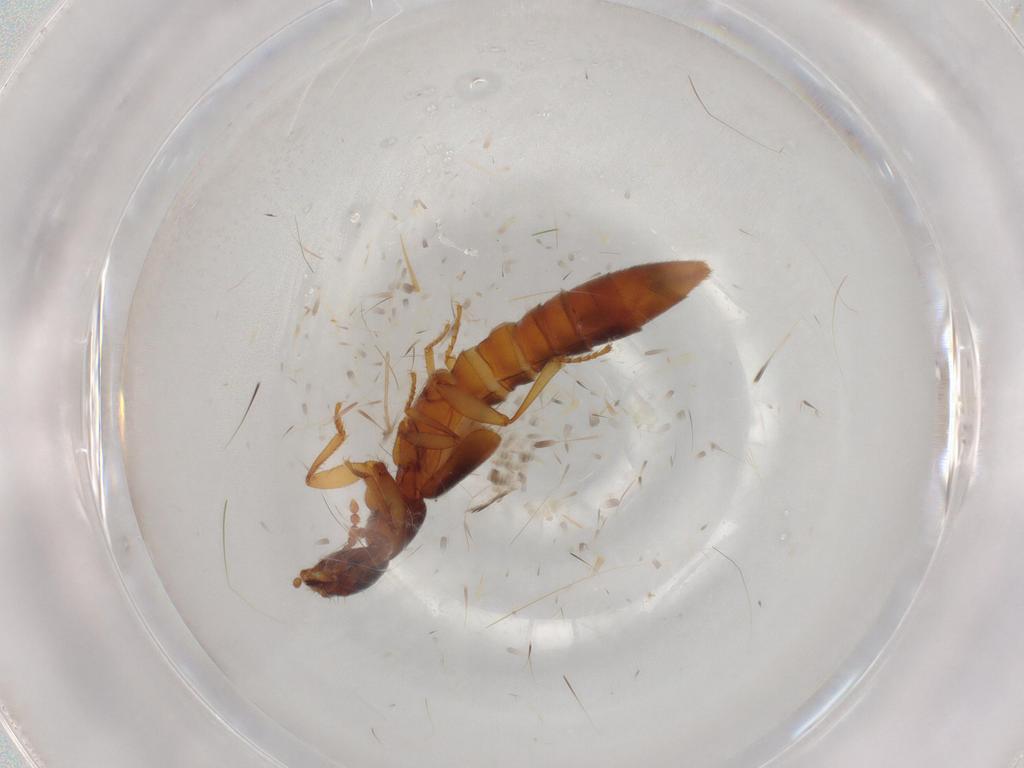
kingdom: Animalia
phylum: Arthropoda
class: Insecta
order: Coleoptera
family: Staphylinidae
